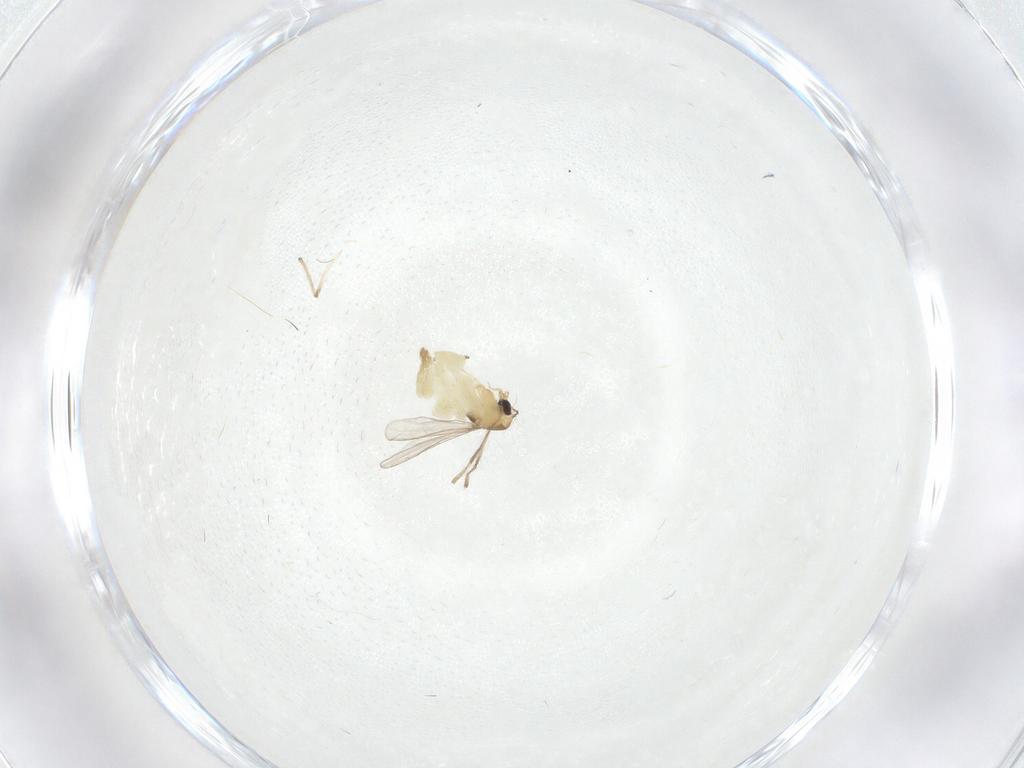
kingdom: Animalia
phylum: Arthropoda
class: Insecta
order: Diptera
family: Chironomidae
